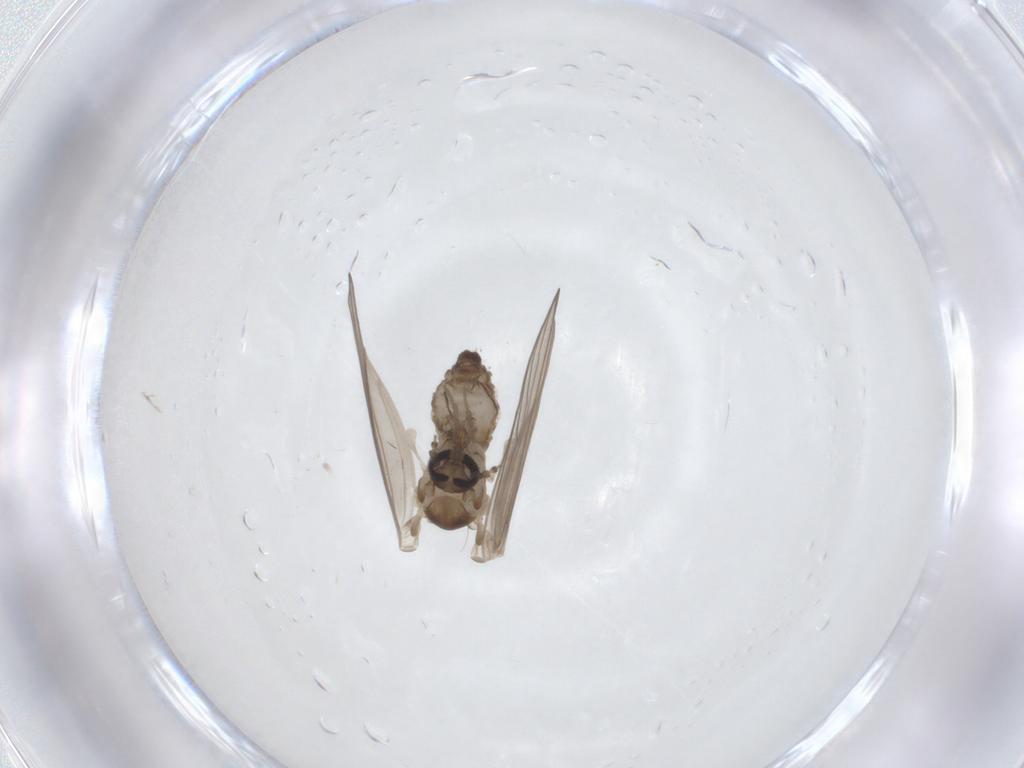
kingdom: Animalia
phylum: Arthropoda
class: Insecta
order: Diptera
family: Psychodidae
